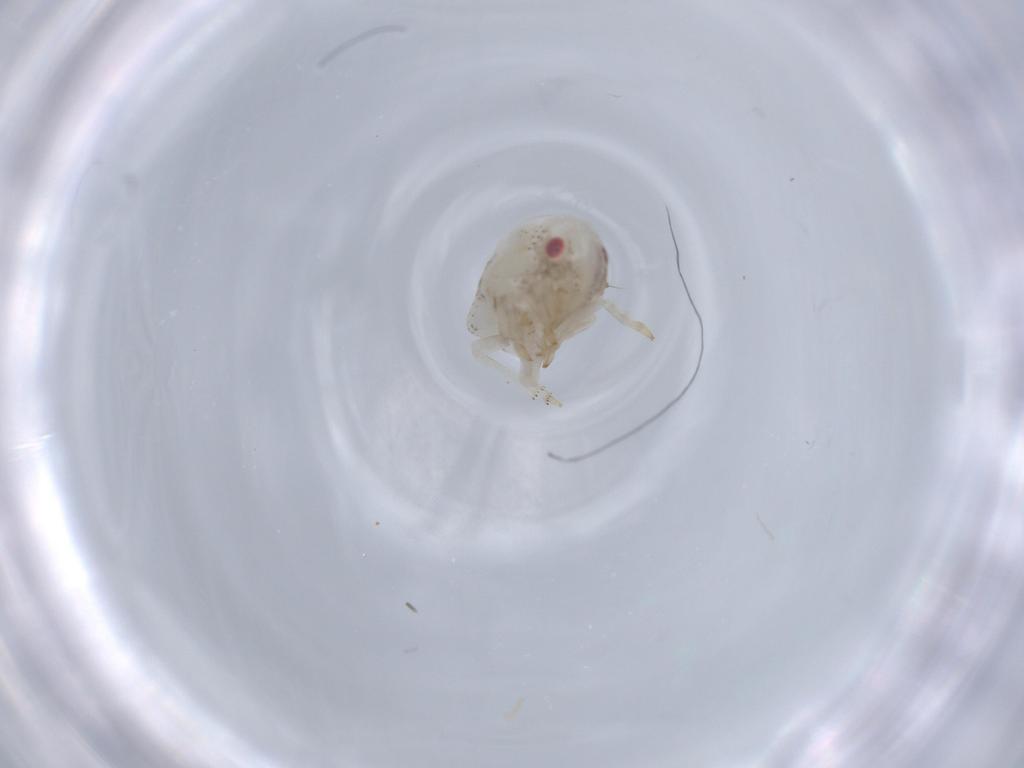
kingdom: Animalia
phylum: Arthropoda
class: Insecta
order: Hemiptera
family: Acanaloniidae
